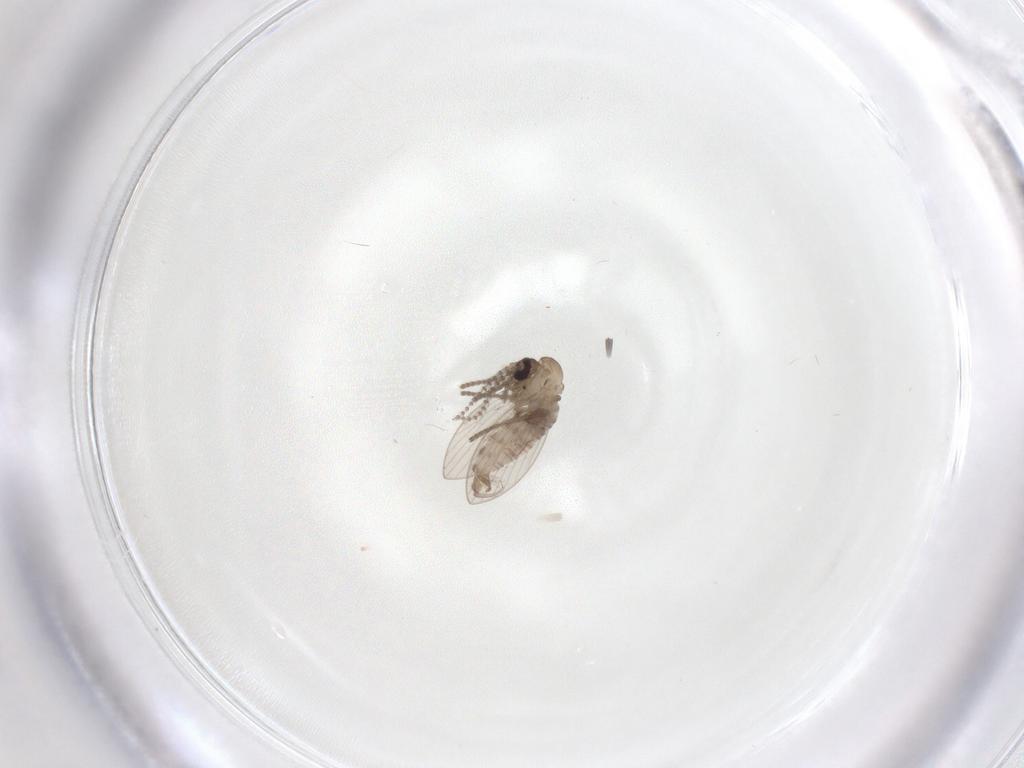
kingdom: Animalia
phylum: Arthropoda
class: Insecta
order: Diptera
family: Psychodidae
